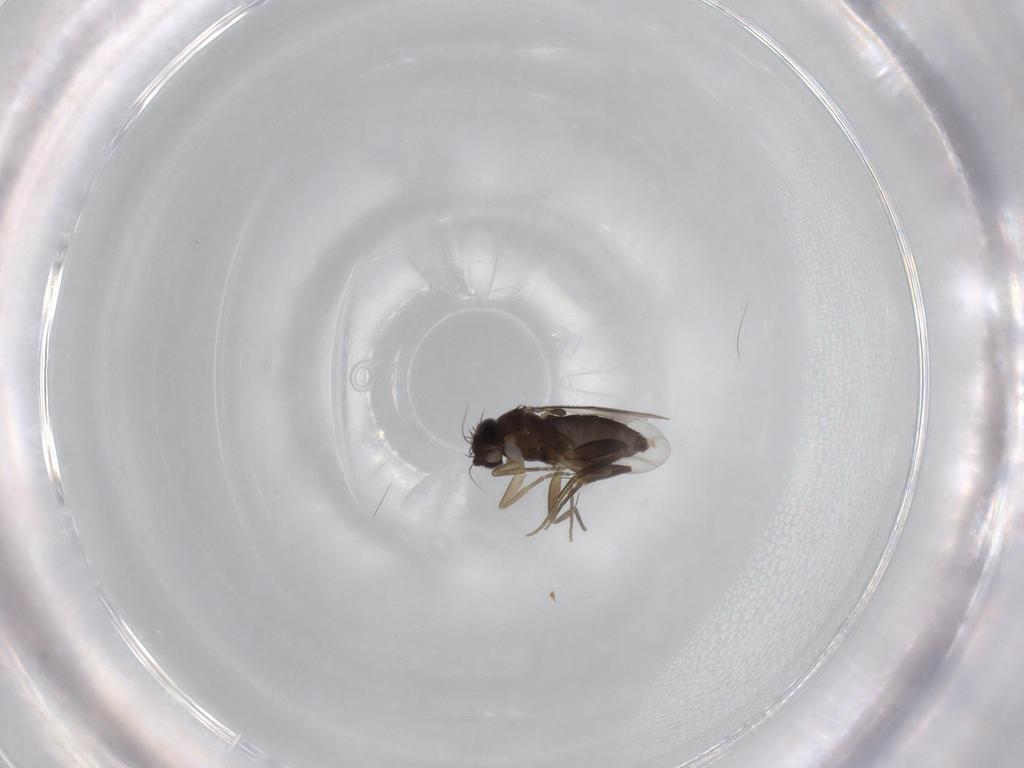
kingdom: Animalia
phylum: Arthropoda
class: Insecta
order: Diptera
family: Phoridae
